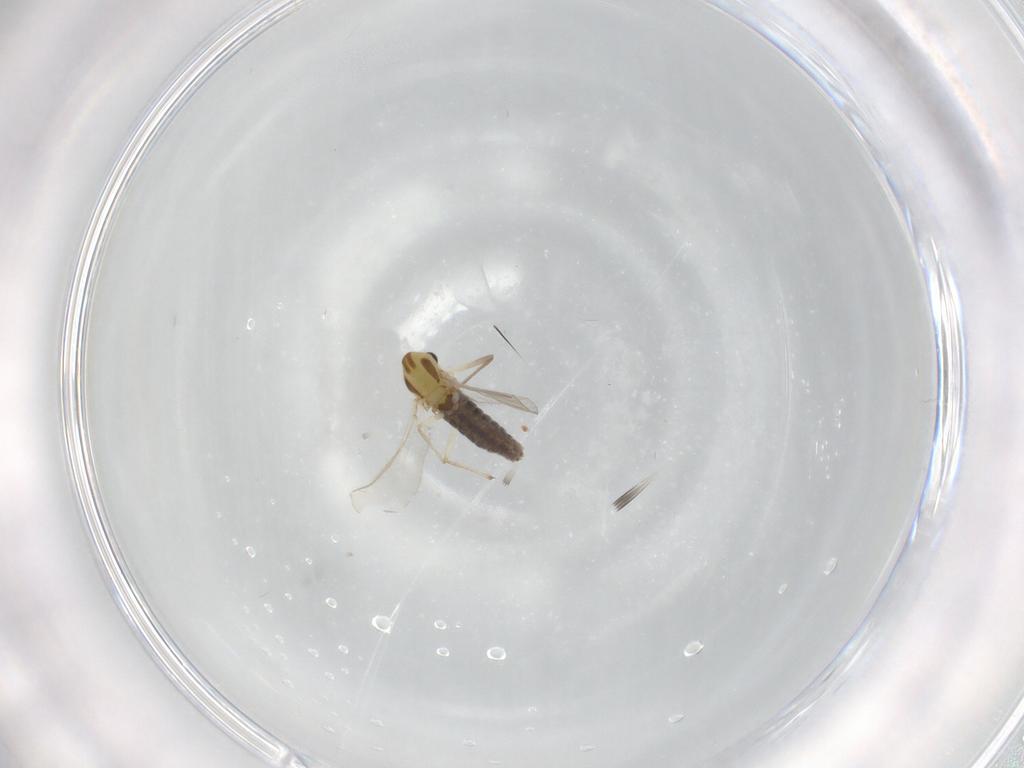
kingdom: Animalia
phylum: Arthropoda
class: Insecta
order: Diptera
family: Chironomidae
